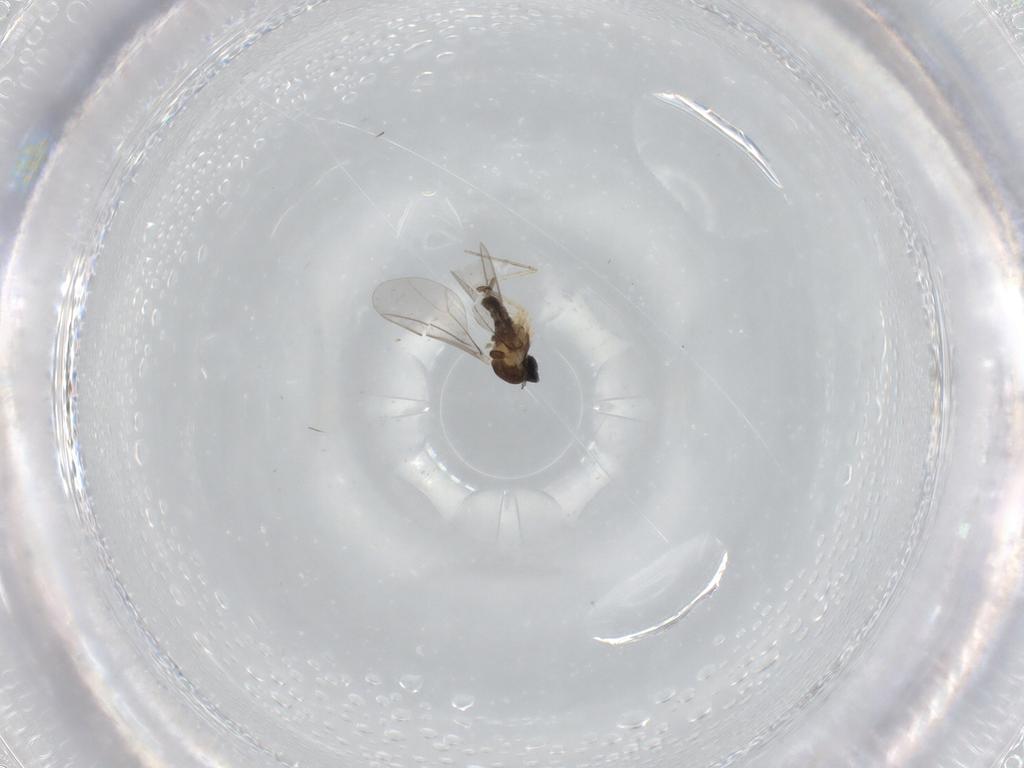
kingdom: Animalia
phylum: Arthropoda
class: Insecta
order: Diptera
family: Cecidomyiidae
